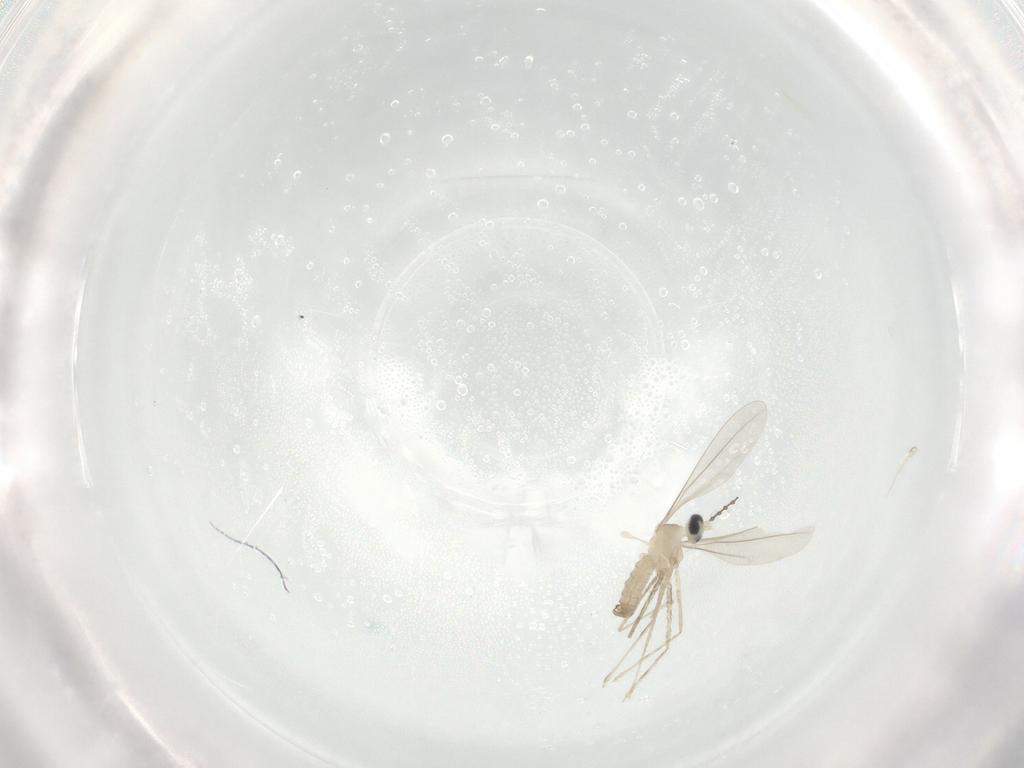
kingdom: Animalia
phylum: Arthropoda
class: Insecta
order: Diptera
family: Cecidomyiidae
